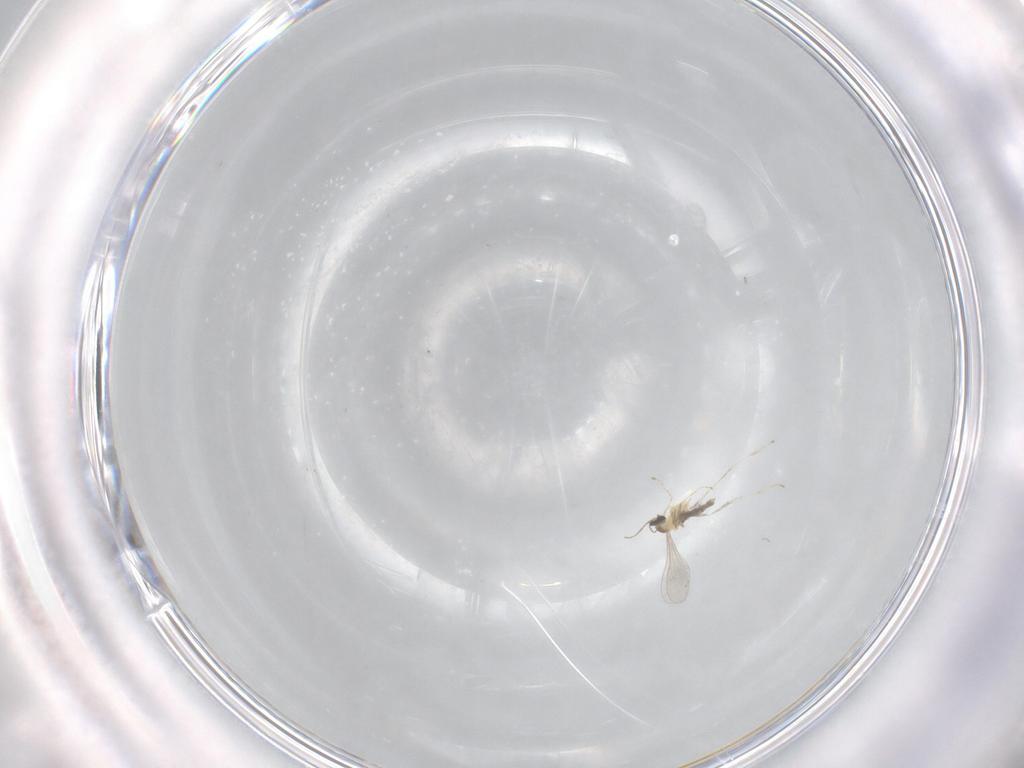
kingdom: Animalia
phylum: Arthropoda
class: Insecta
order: Diptera
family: Cecidomyiidae
